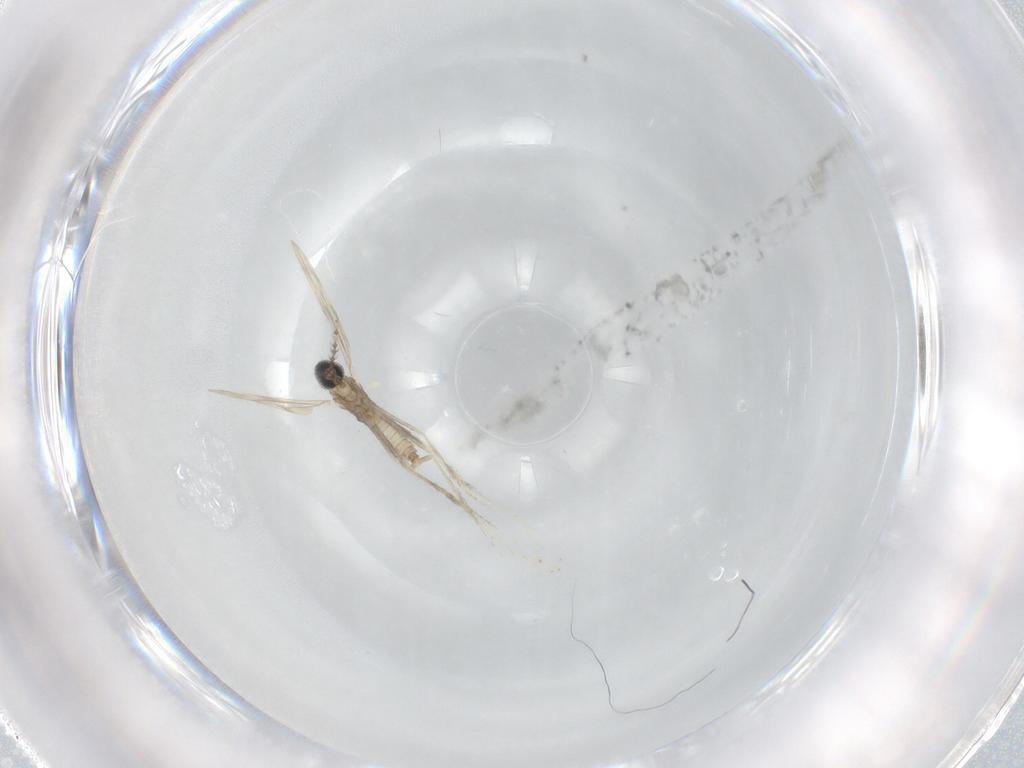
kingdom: Animalia
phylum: Arthropoda
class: Insecta
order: Diptera
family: Cecidomyiidae
